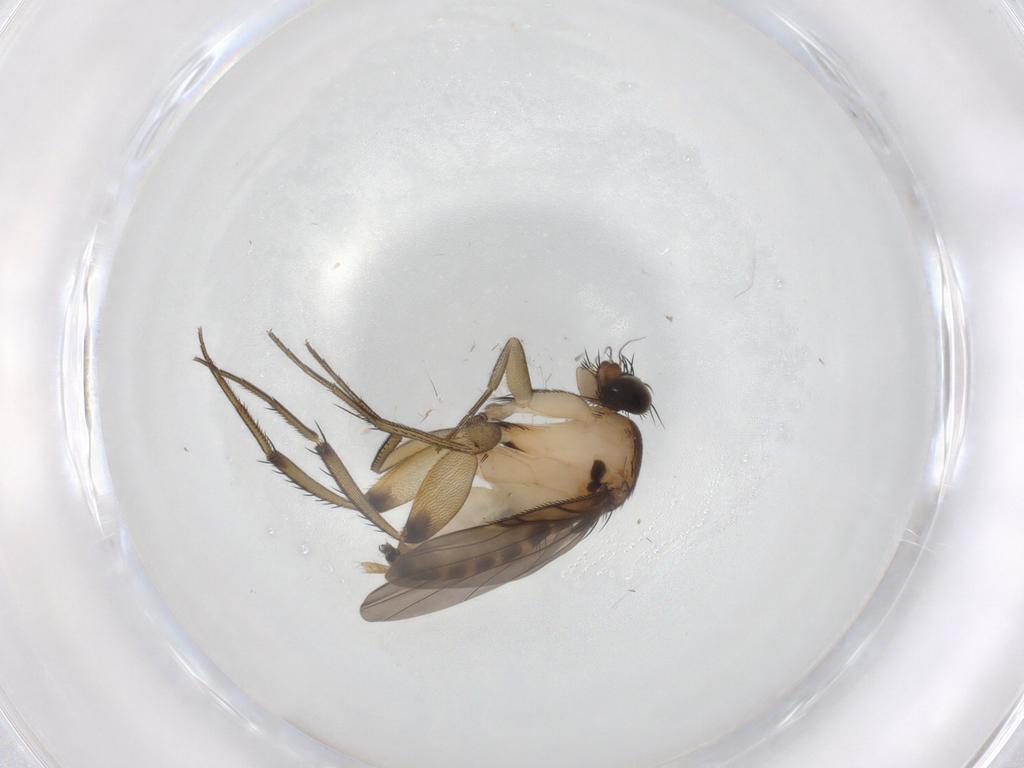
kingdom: Animalia
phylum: Arthropoda
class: Insecta
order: Diptera
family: Phoridae
